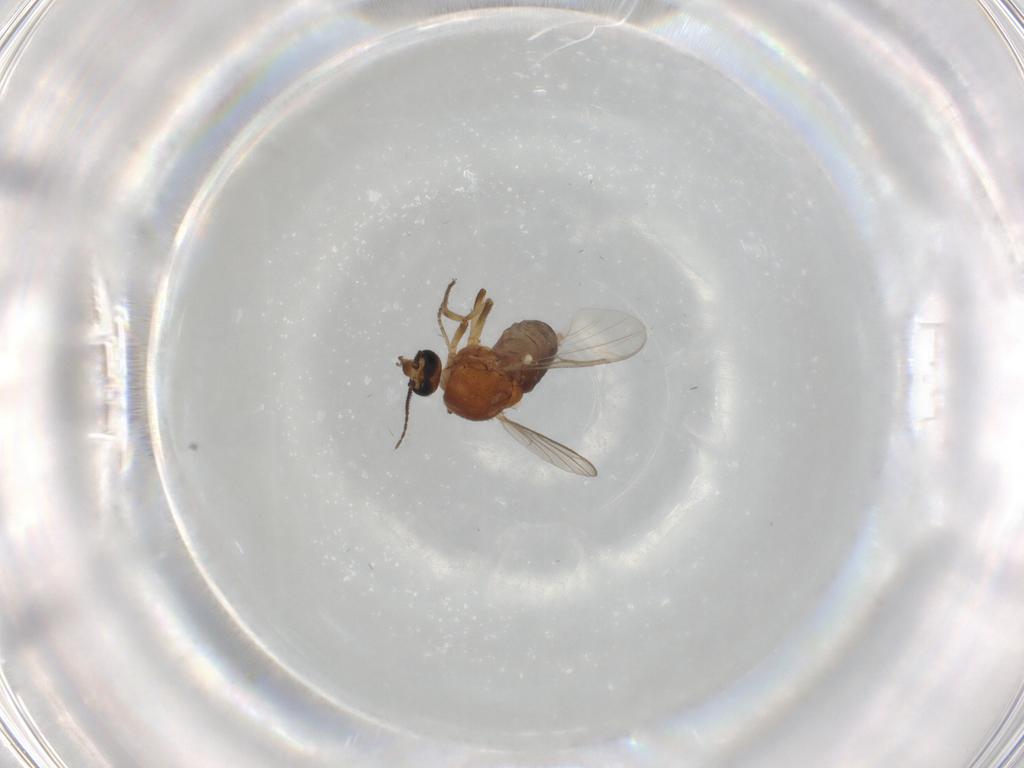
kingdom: Animalia
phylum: Arthropoda
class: Insecta
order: Diptera
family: Ceratopogonidae
